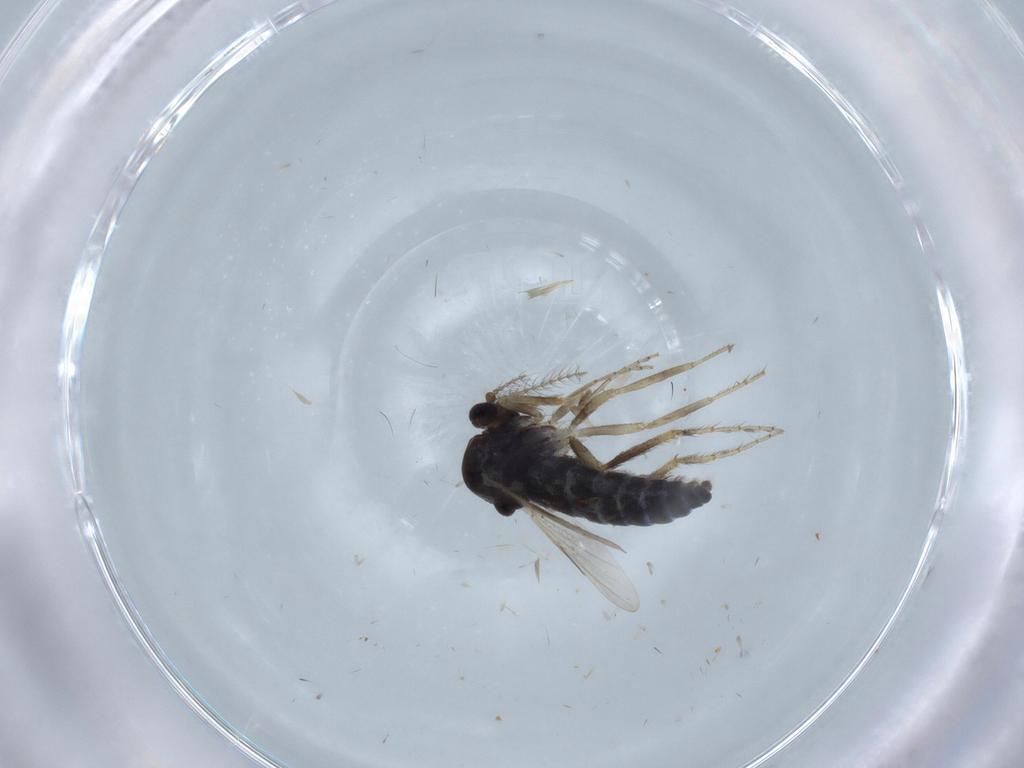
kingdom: Animalia
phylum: Arthropoda
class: Insecta
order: Diptera
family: Ceratopogonidae
